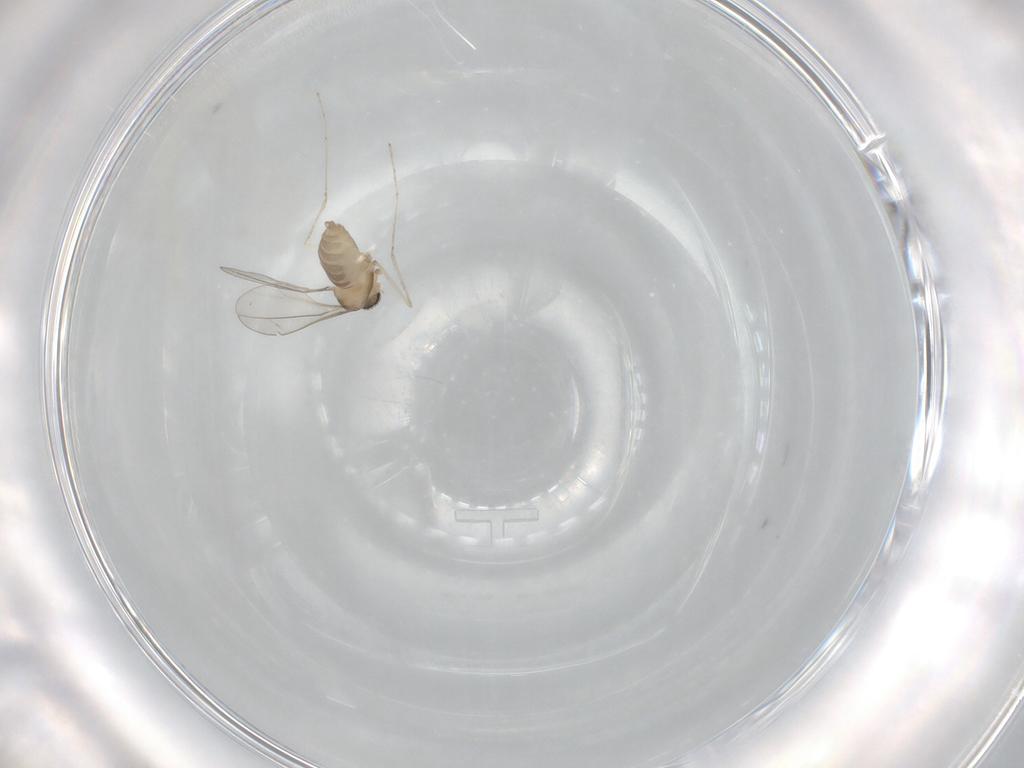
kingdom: Animalia
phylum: Arthropoda
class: Insecta
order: Diptera
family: Cecidomyiidae
